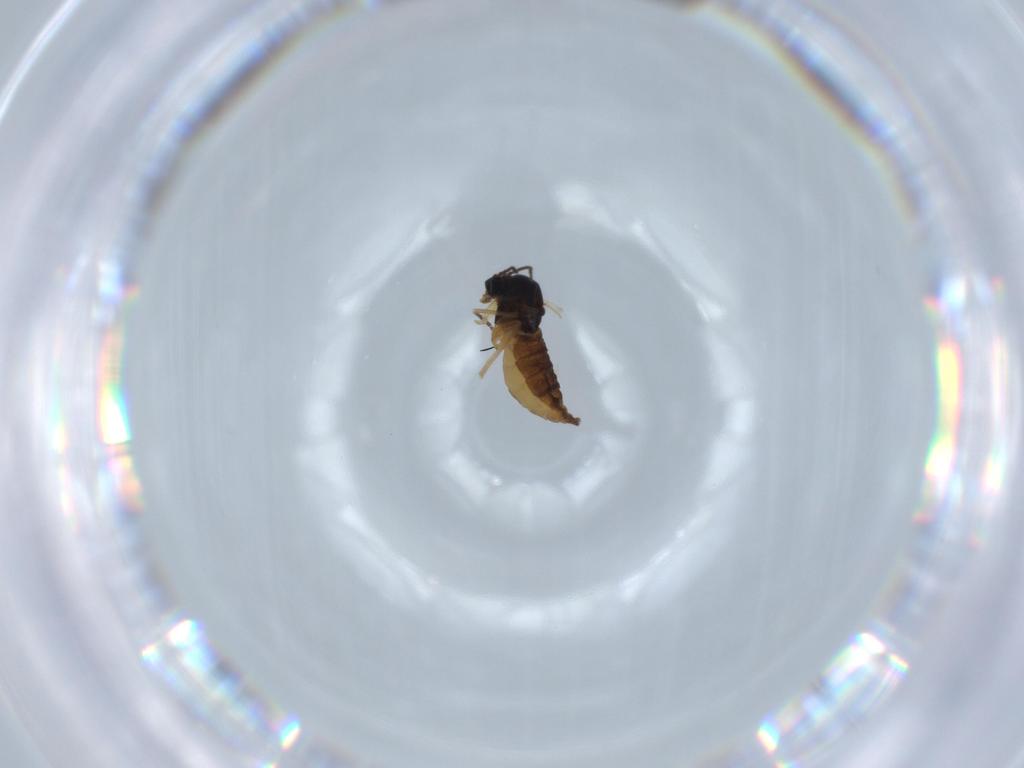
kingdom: Animalia
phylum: Arthropoda
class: Insecta
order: Diptera
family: Sciaridae
